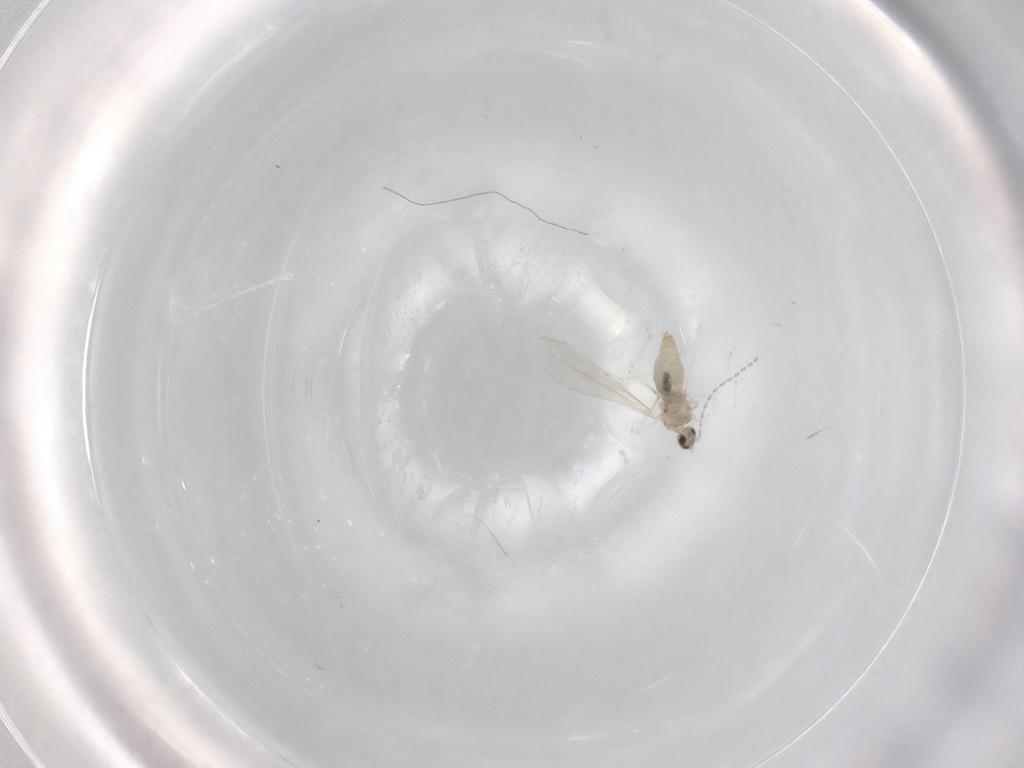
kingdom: Animalia
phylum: Arthropoda
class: Insecta
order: Diptera
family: Cecidomyiidae
